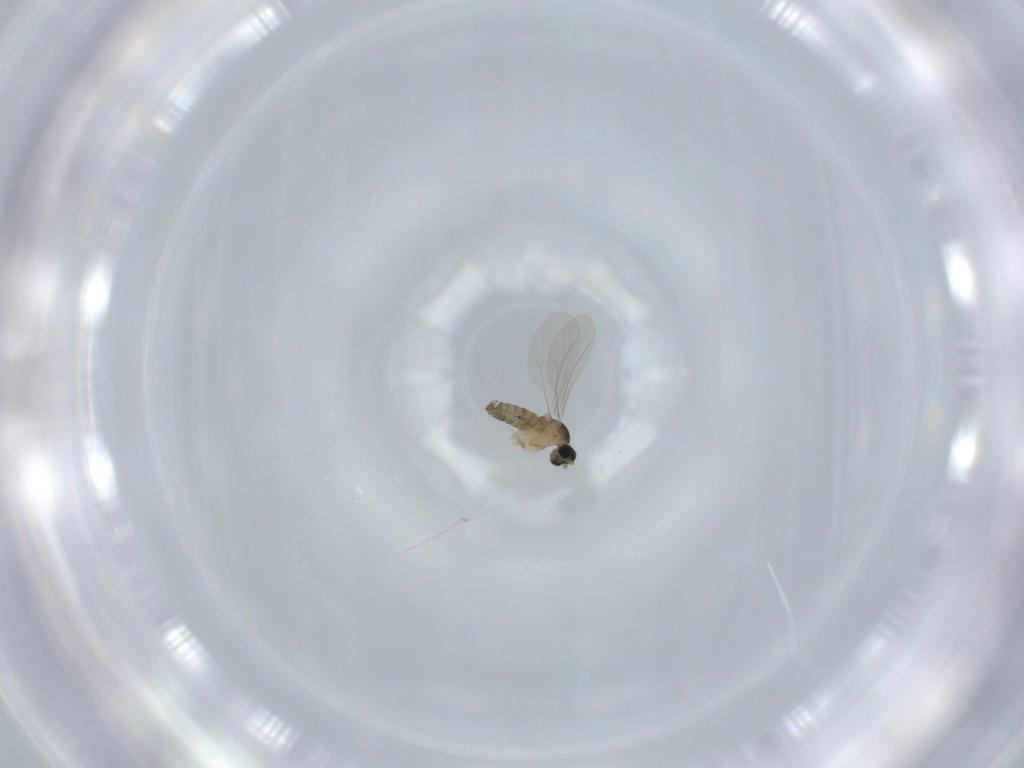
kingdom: Animalia
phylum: Arthropoda
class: Insecta
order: Diptera
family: Cecidomyiidae
